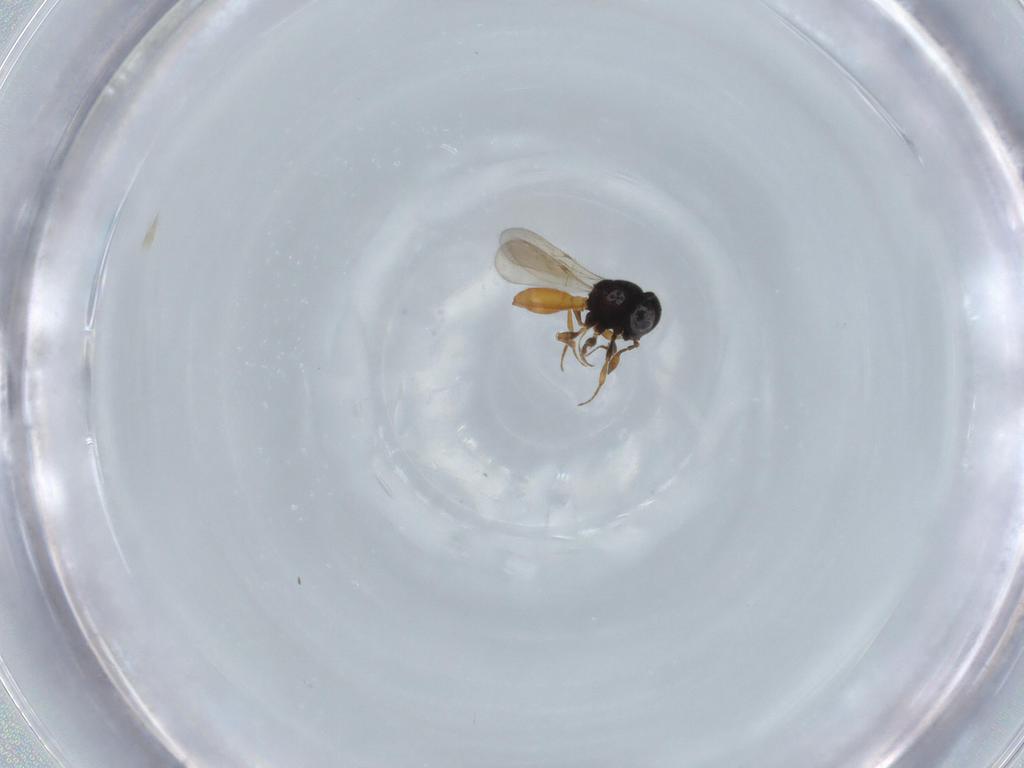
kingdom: Animalia
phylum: Arthropoda
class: Insecta
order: Hymenoptera
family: Scelionidae
